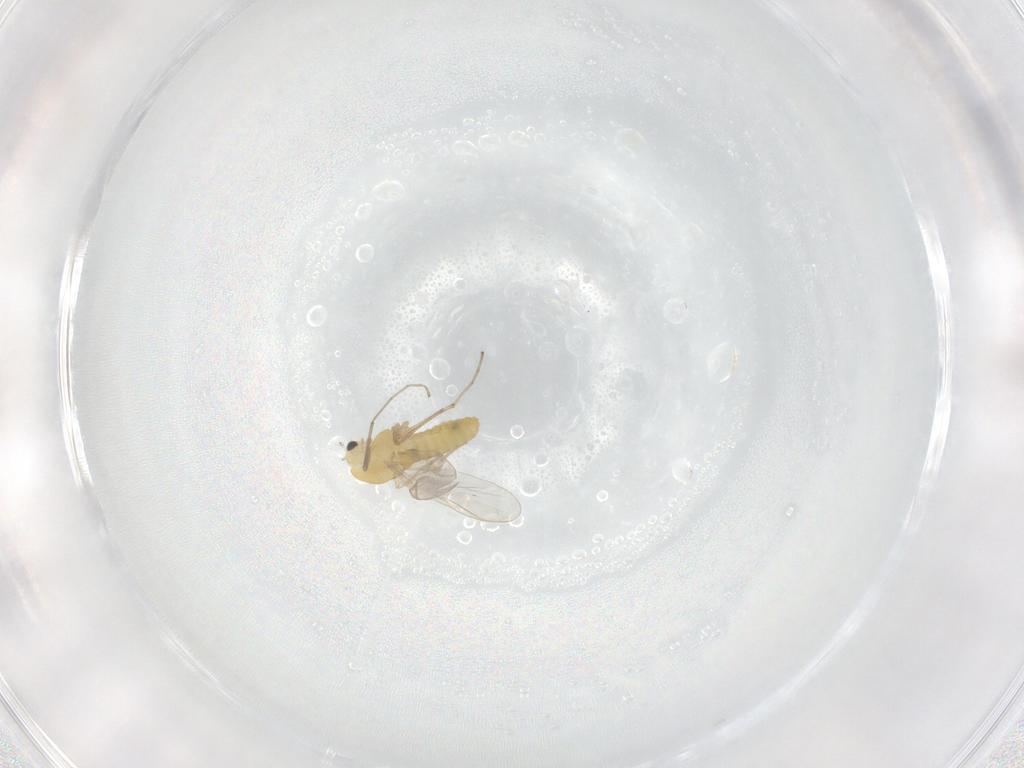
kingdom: Animalia
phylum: Arthropoda
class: Insecta
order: Diptera
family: Chironomidae
